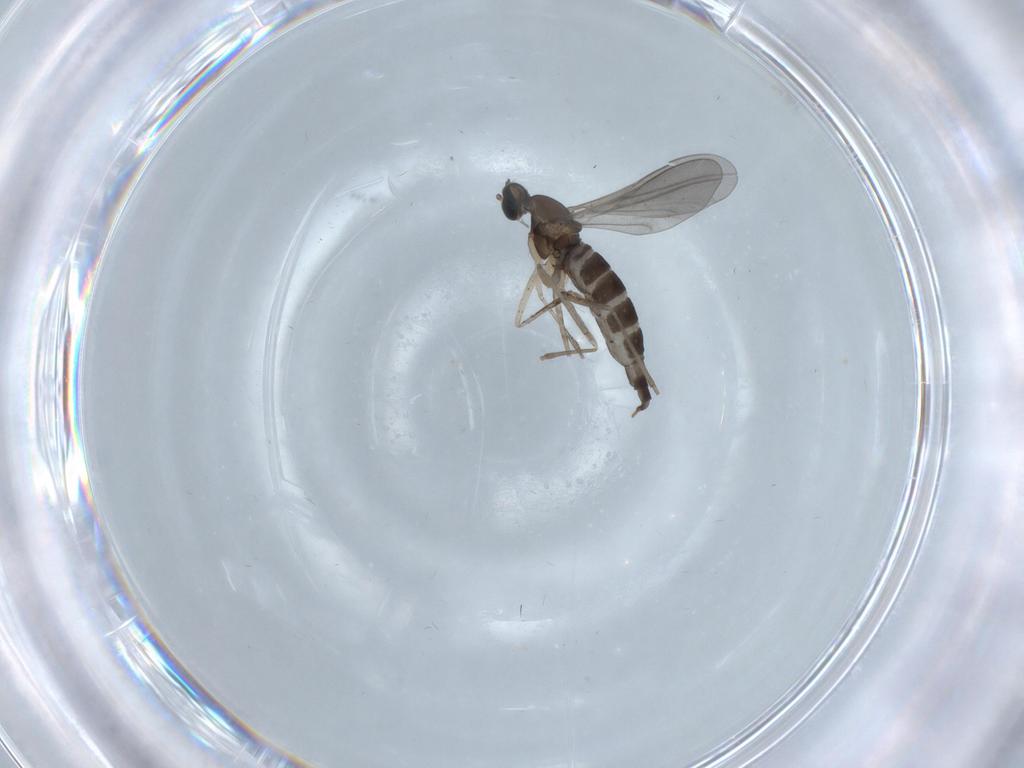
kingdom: Animalia
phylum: Arthropoda
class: Insecta
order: Diptera
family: Cecidomyiidae
